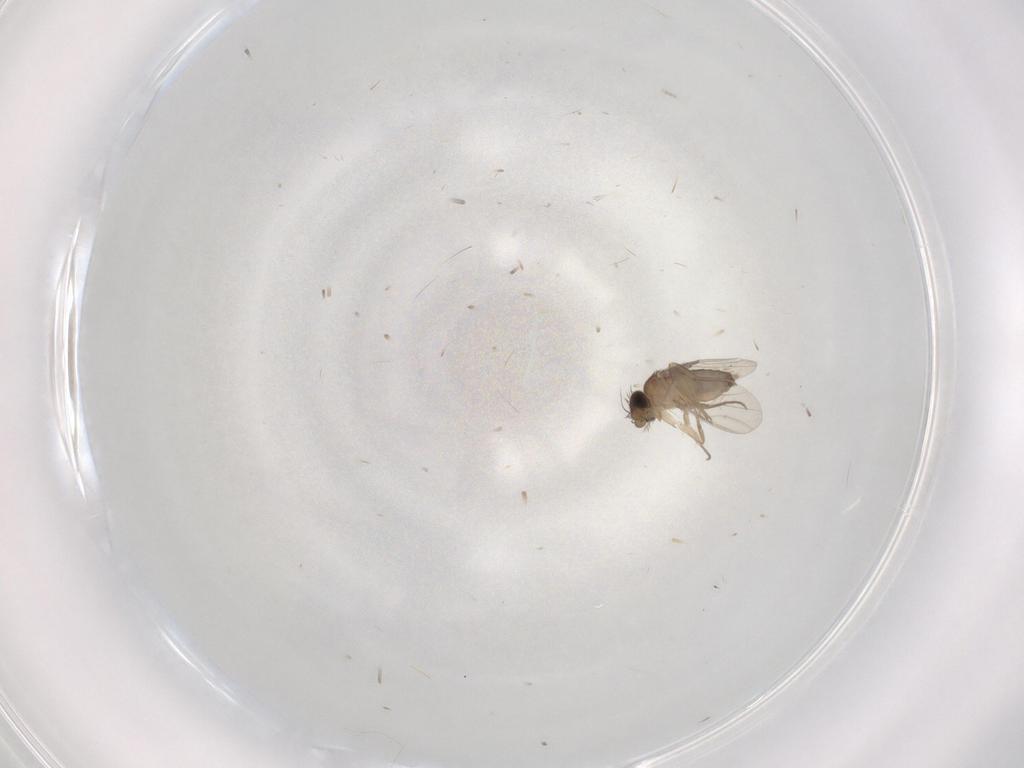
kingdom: Animalia
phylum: Arthropoda
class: Insecta
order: Diptera
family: Phoridae
